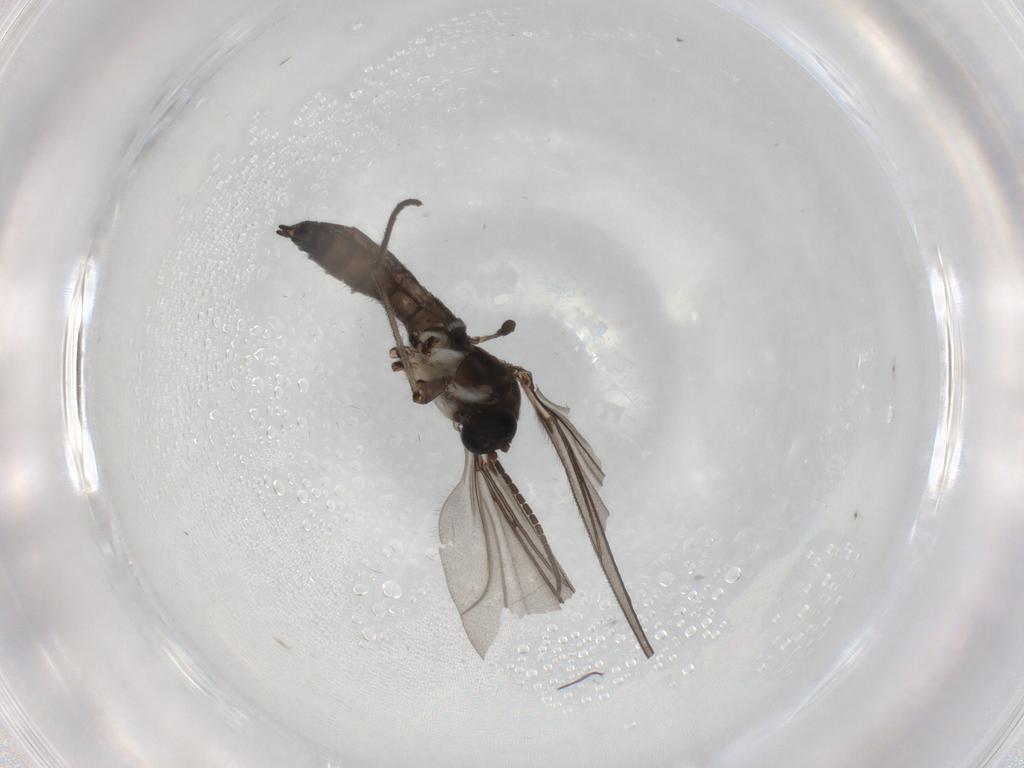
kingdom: Animalia
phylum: Arthropoda
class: Insecta
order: Diptera
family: Sciaridae
